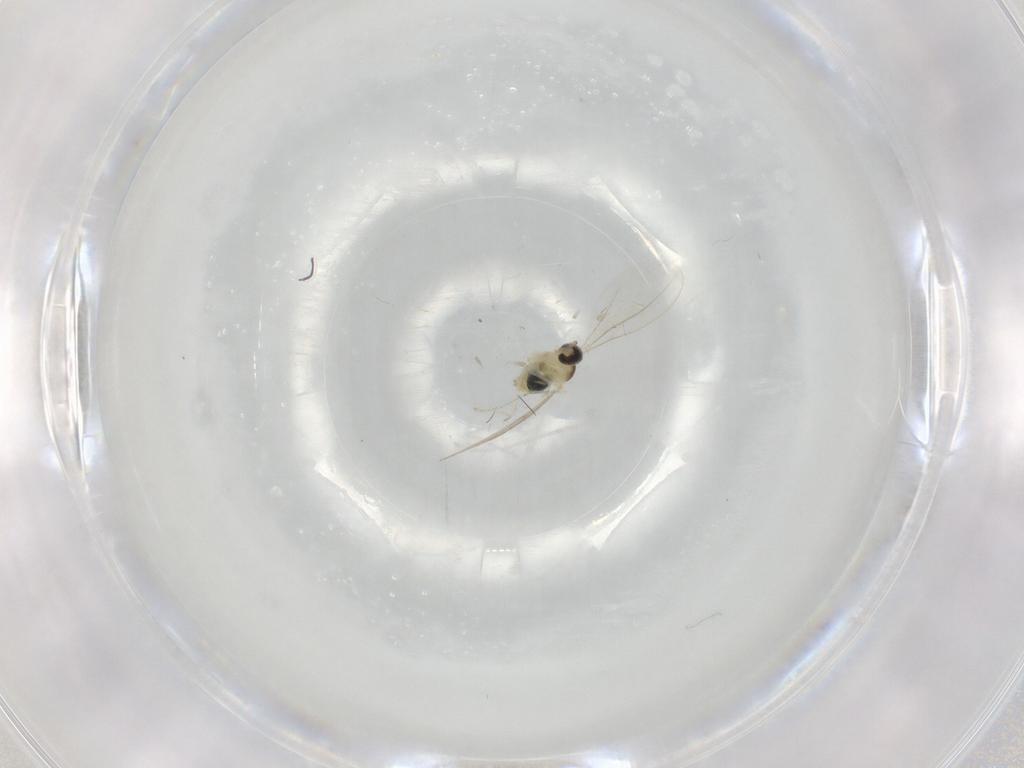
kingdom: Animalia
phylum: Arthropoda
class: Insecta
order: Diptera
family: Cecidomyiidae
